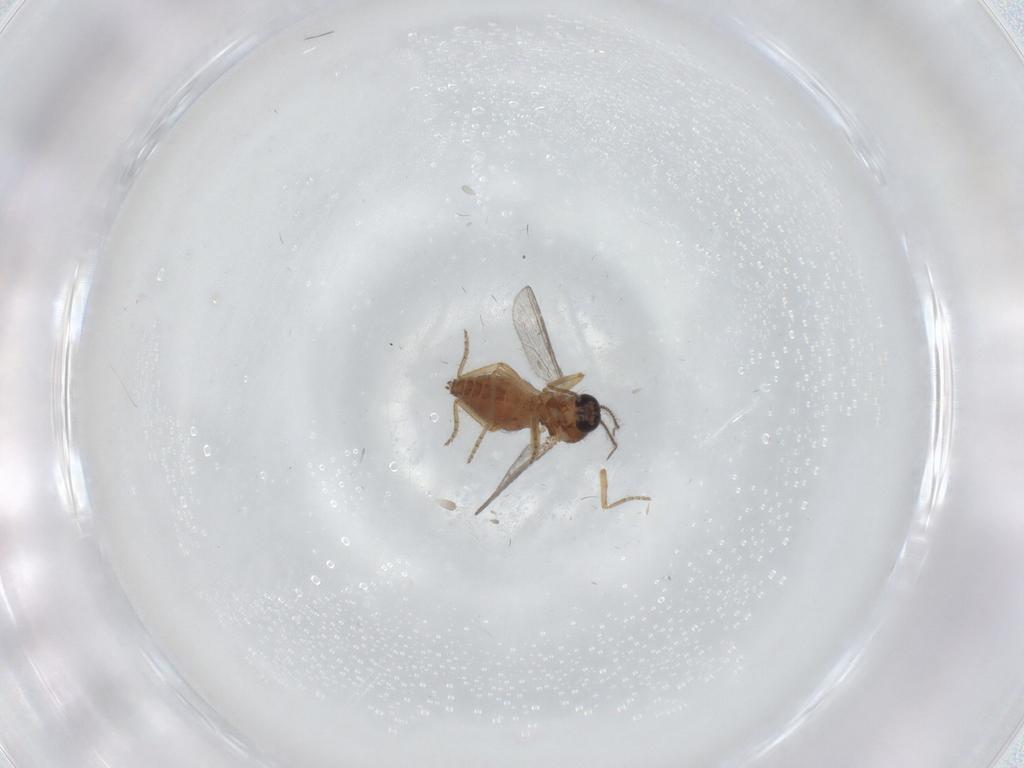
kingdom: Animalia
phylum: Arthropoda
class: Insecta
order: Diptera
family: Ceratopogonidae
